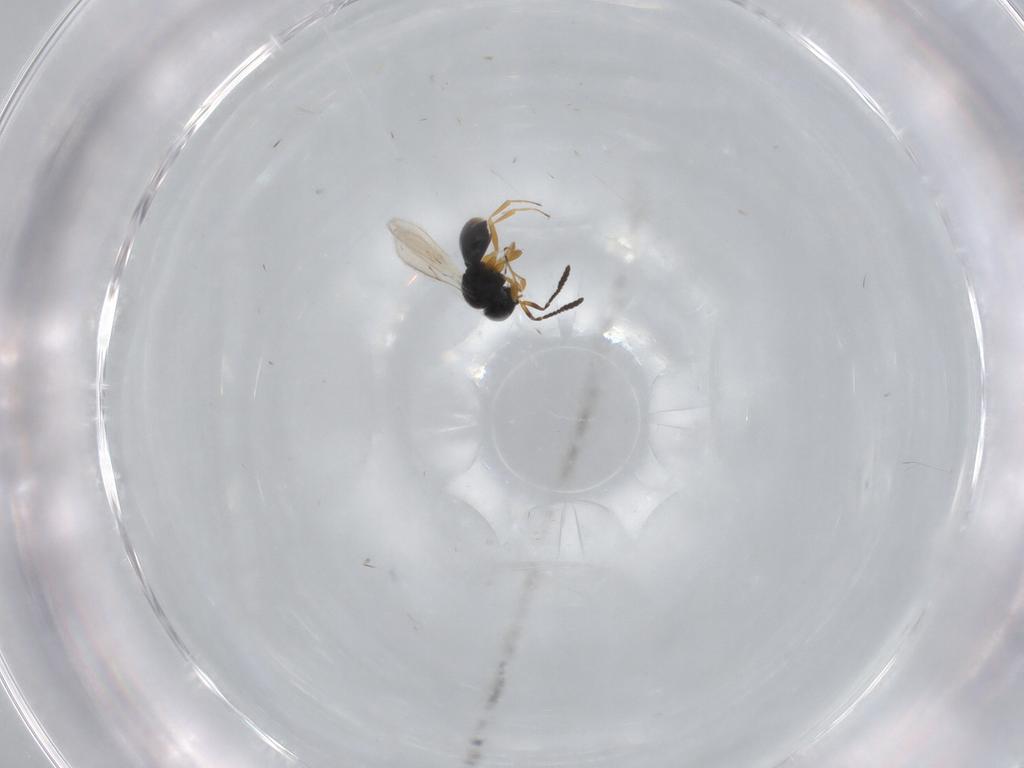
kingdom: Animalia
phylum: Arthropoda
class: Insecta
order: Hymenoptera
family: Scelionidae
